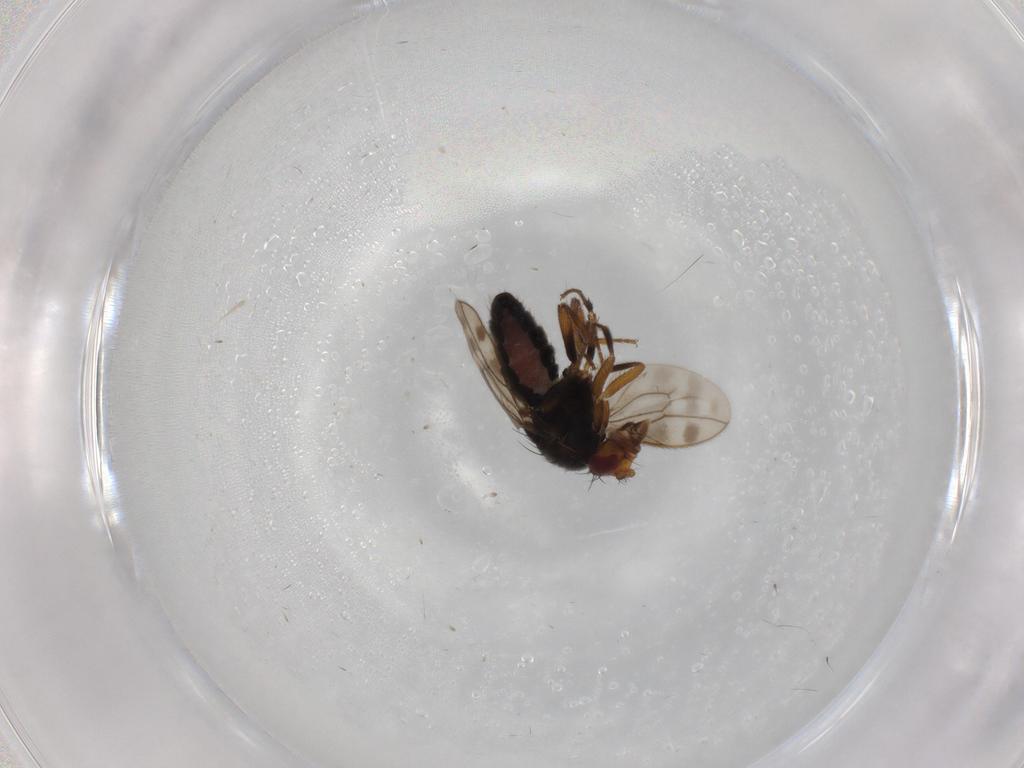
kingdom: Animalia
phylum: Arthropoda
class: Insecta
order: Diptera
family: Sphaeroceridae
